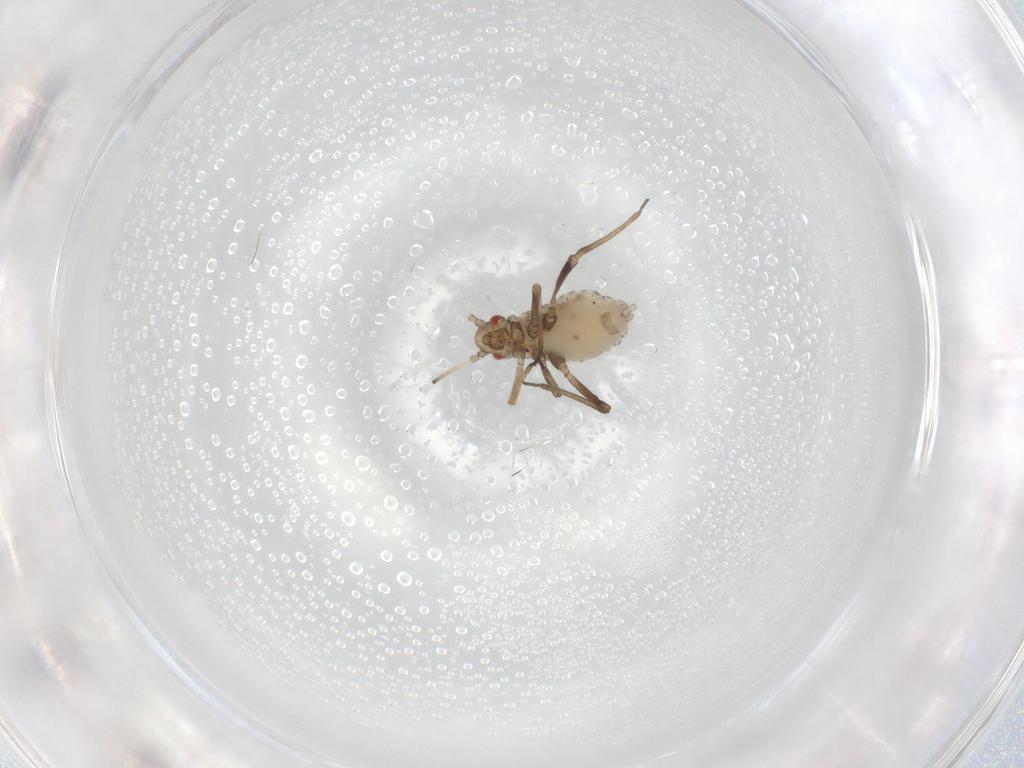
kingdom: Animalia
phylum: Arthropoda
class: Insecta
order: Hemiptera
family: Aphididae
